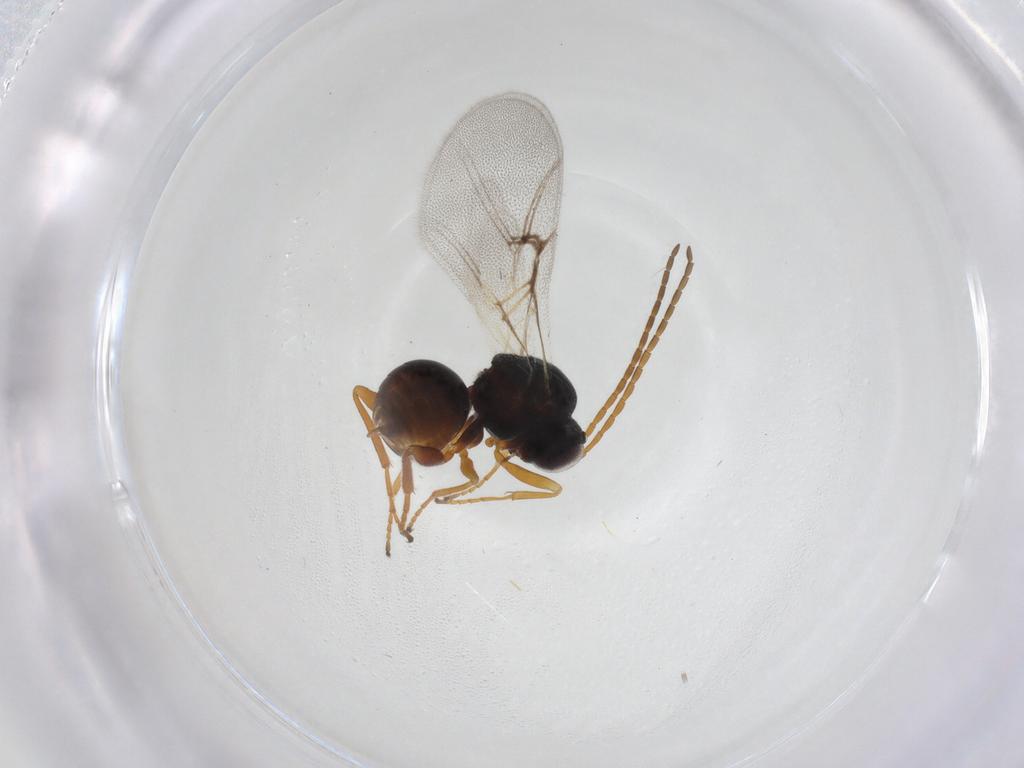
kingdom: Animalia
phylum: Arthropoda
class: Insecta
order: Hymenoptera
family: Cynipidae
